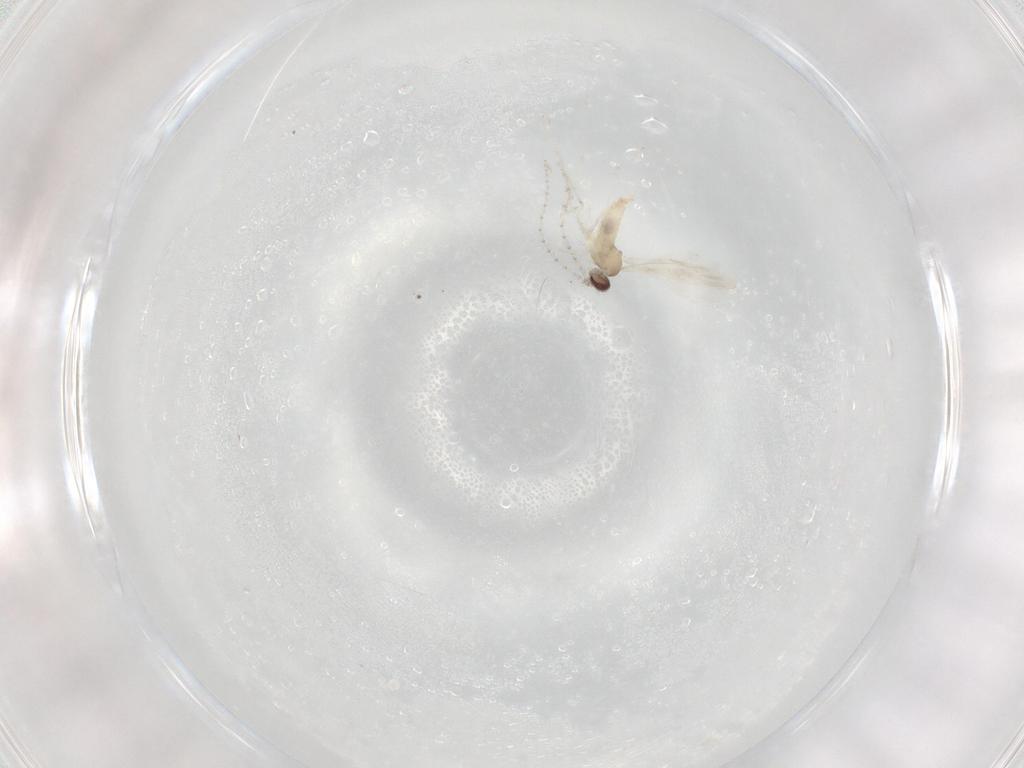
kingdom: Animalia
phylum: Arthropoda
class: Insecta
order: Diptera
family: Cecidomyiidae
